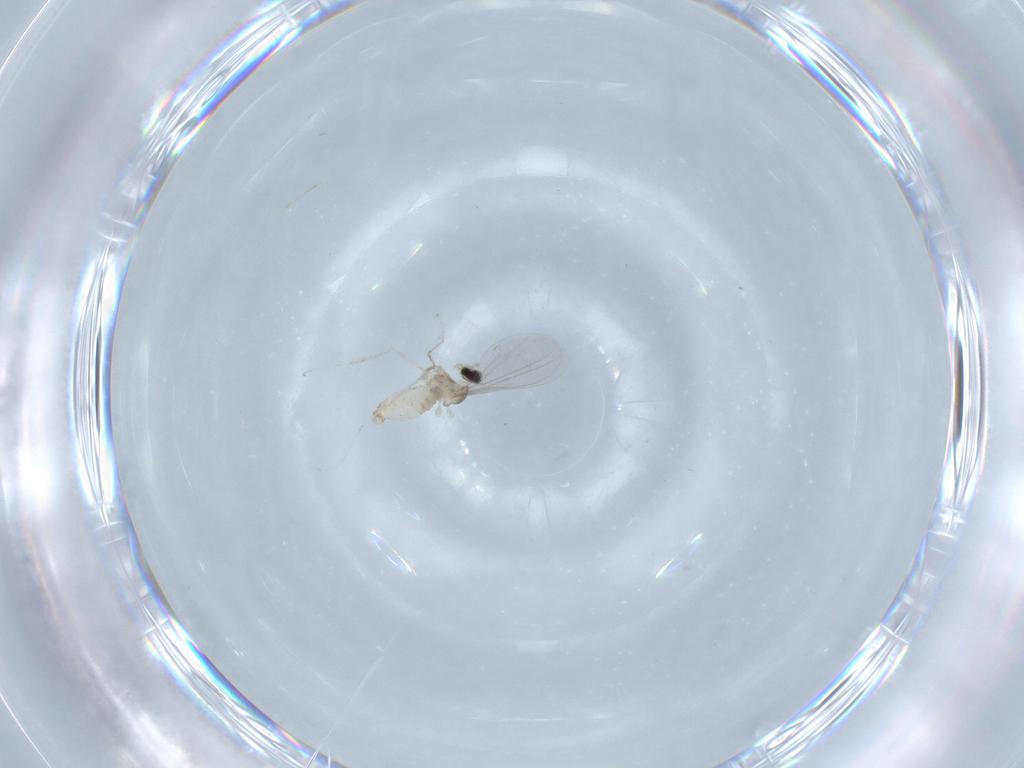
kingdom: Animalia
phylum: Arthropoda
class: Insecta
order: Diptera
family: Cecidomyiidae
